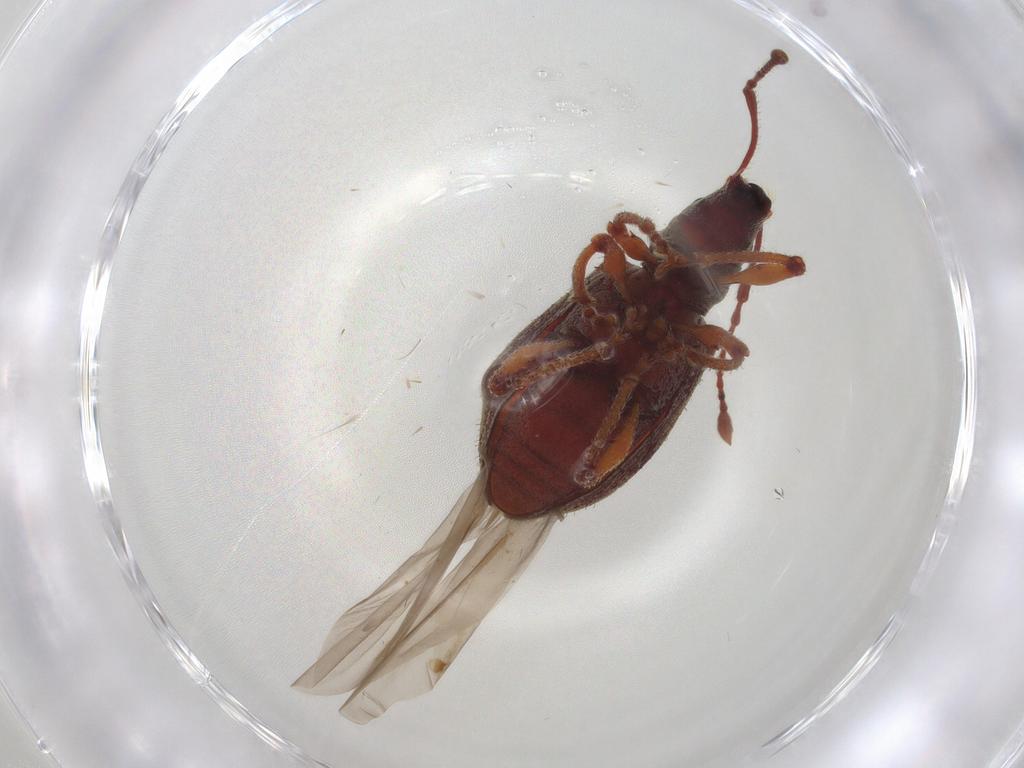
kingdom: Animalia
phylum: Arthropoda
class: Insecta
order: Coleoptera
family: Curculionidae
